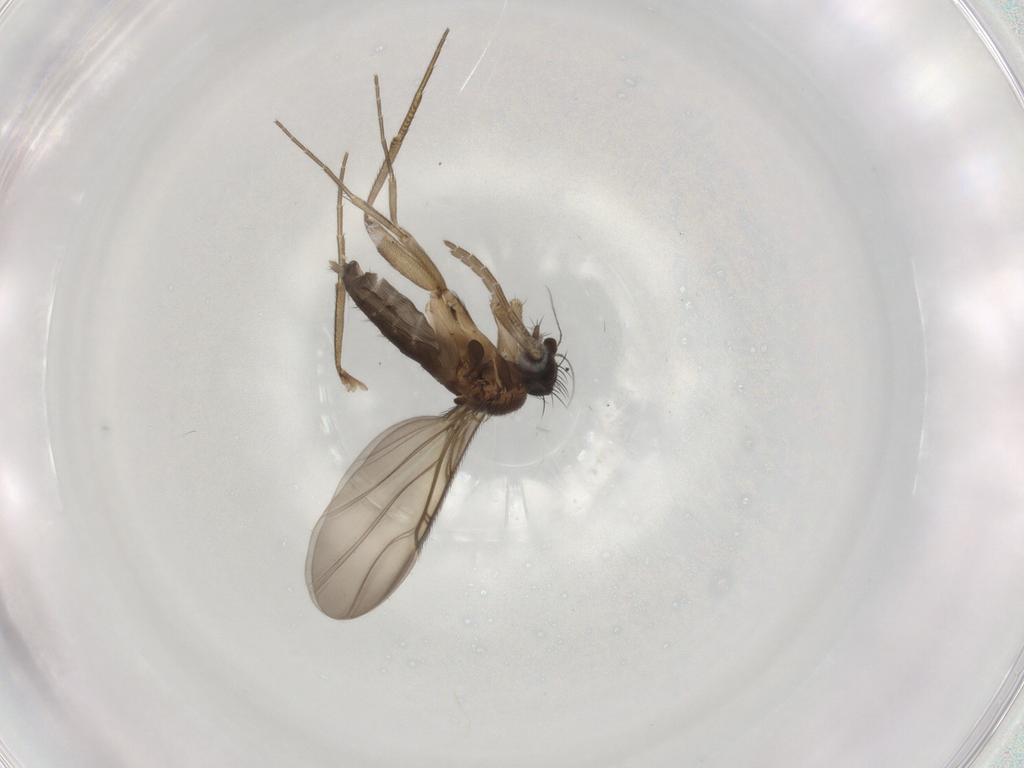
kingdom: Animalia
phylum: Arthropoda
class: Insecta
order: Diptera
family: Phoridae
